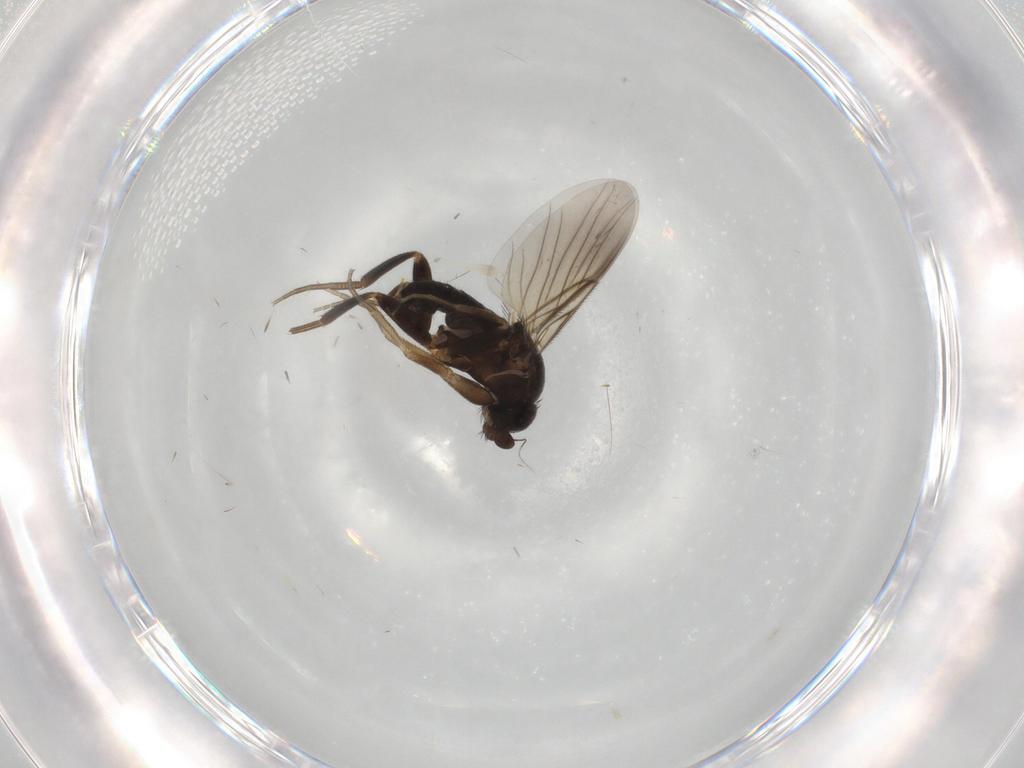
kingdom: Animalia
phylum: Arthropoda
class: Insecta
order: Diptera
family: Phoridae
